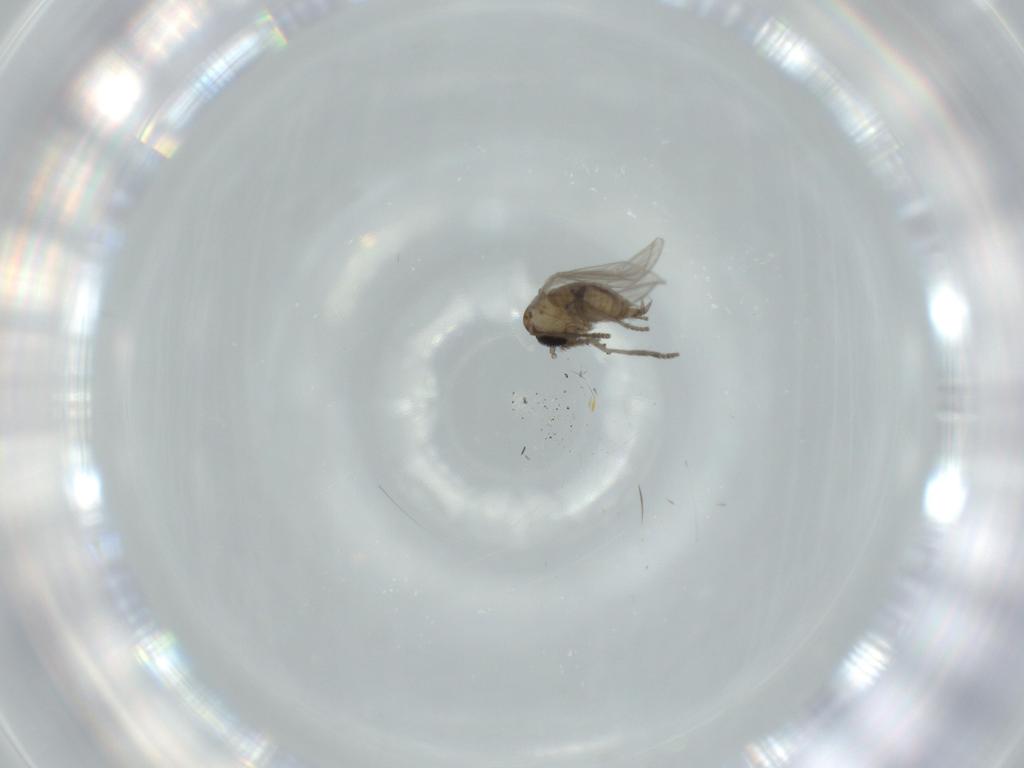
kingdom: Animalia
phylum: Arthropoda
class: Insecta
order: Diptera
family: Psychodidae
